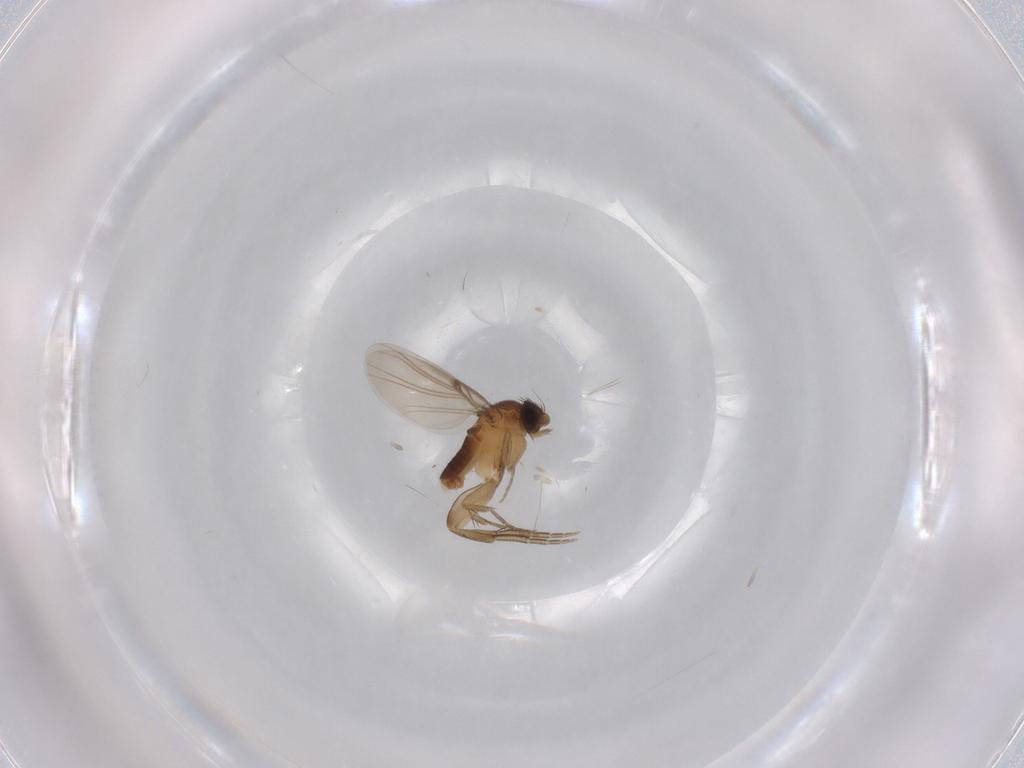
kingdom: Animalia
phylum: Arthropoda
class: Insecta
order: Diptera
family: Phoridae
